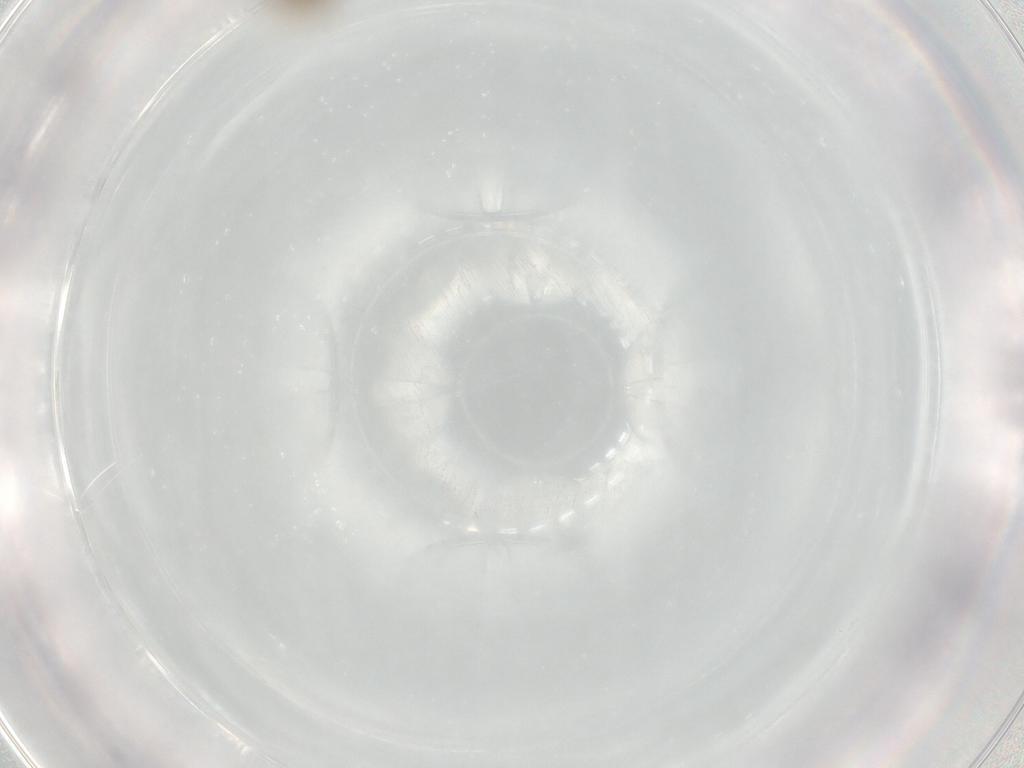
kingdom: Animalia
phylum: Arthropoda
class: Insecta
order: Diptera
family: Cecidomyiidae
